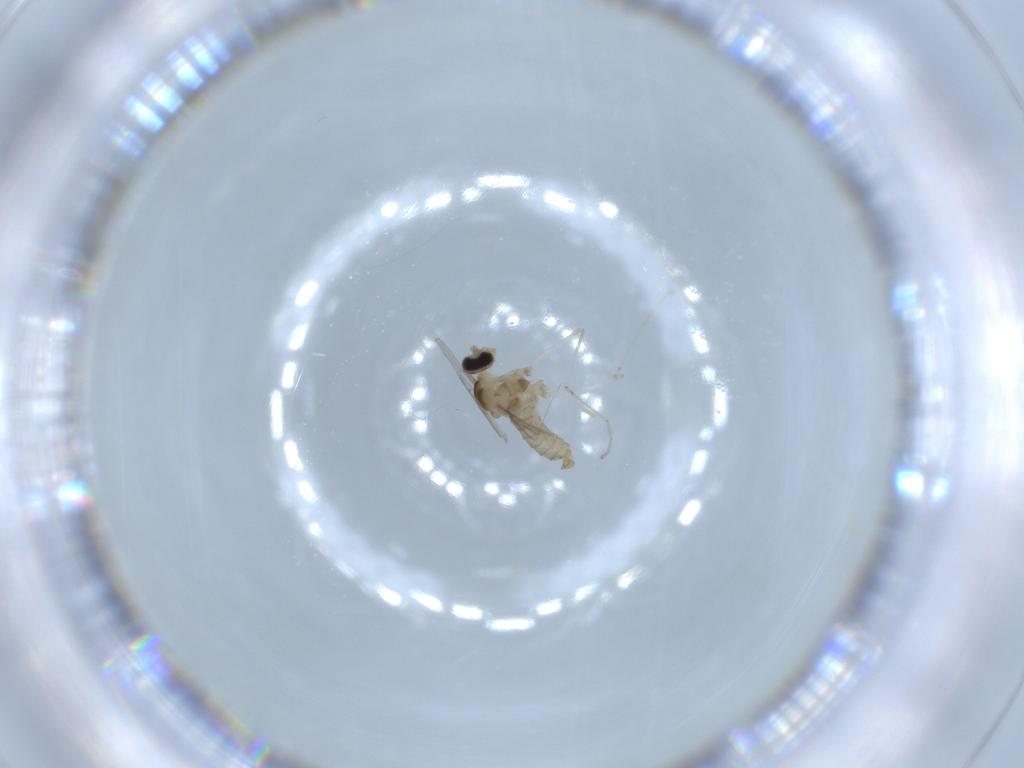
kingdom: Animalia
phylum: Arthropoda
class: Insecta
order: Diptera
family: Cecidomyiidae
